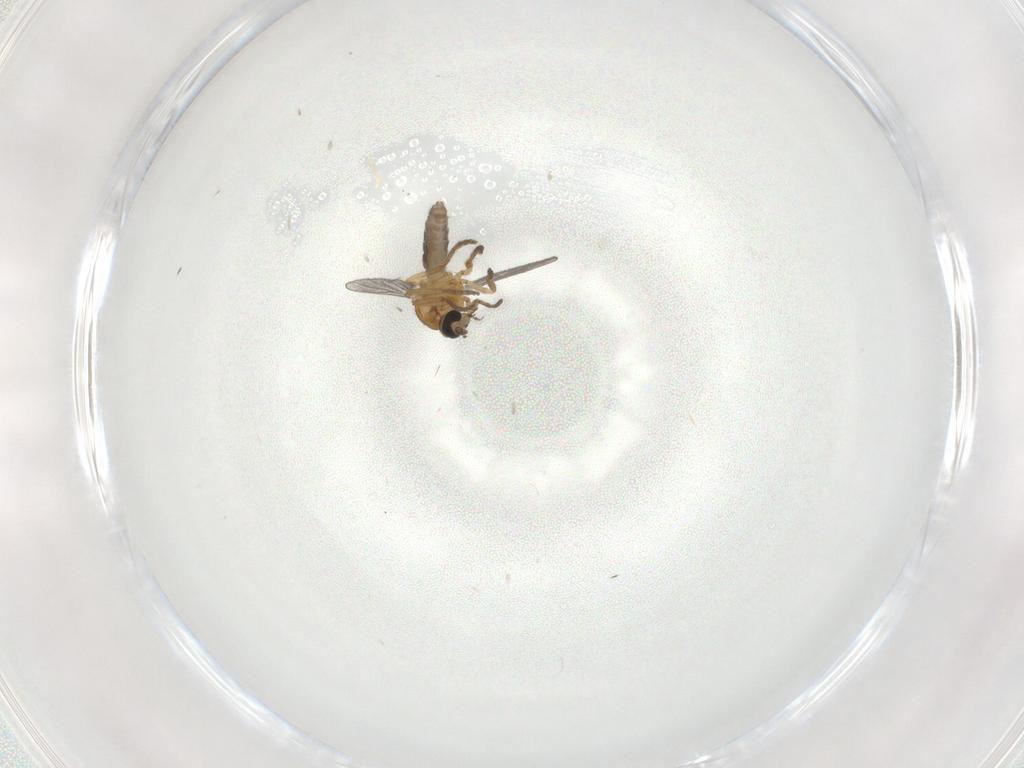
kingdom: Animalia
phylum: Arthropoda
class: Insecta
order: Diptera
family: Ceratopogonidae
